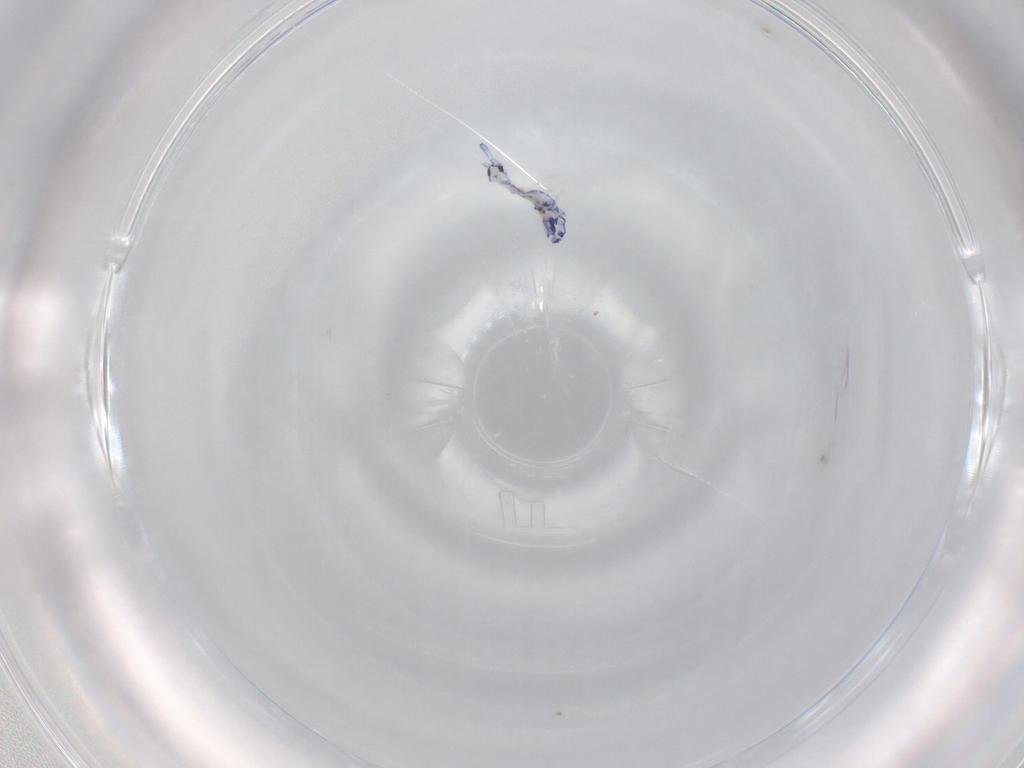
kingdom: Animalia
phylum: Arthropoda
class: Collembola
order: Entomobryomorpha
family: Entomobryidae
